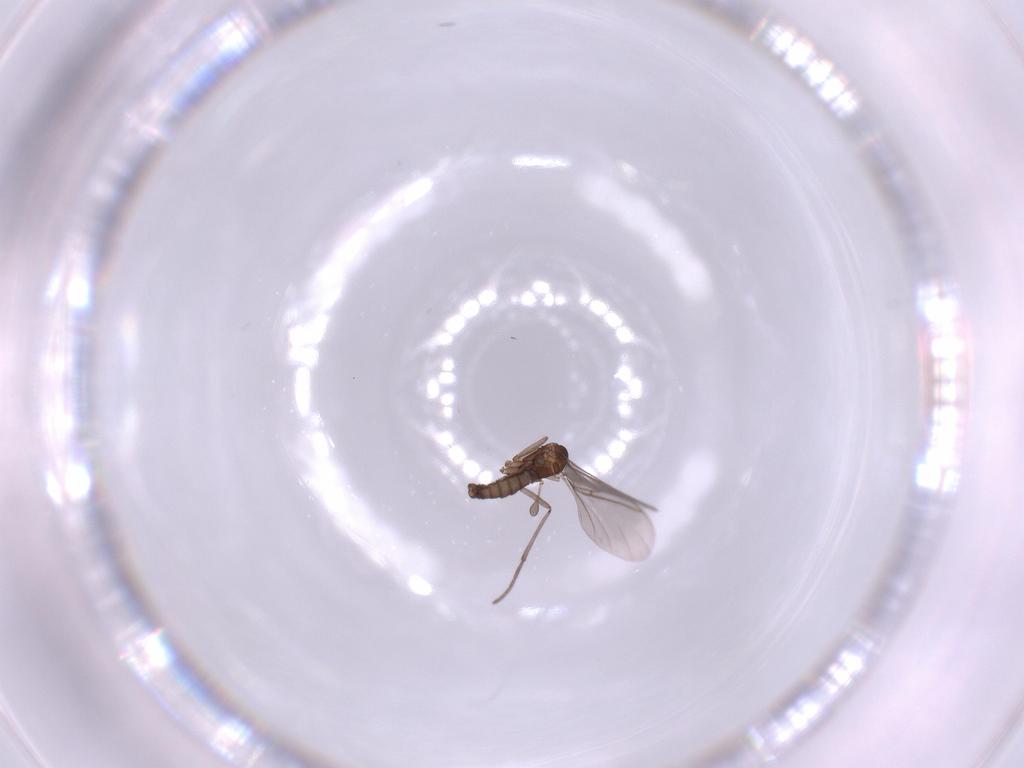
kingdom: Animalia
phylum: Arthropoda
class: Insecta
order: Diptera
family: Sciaridae
